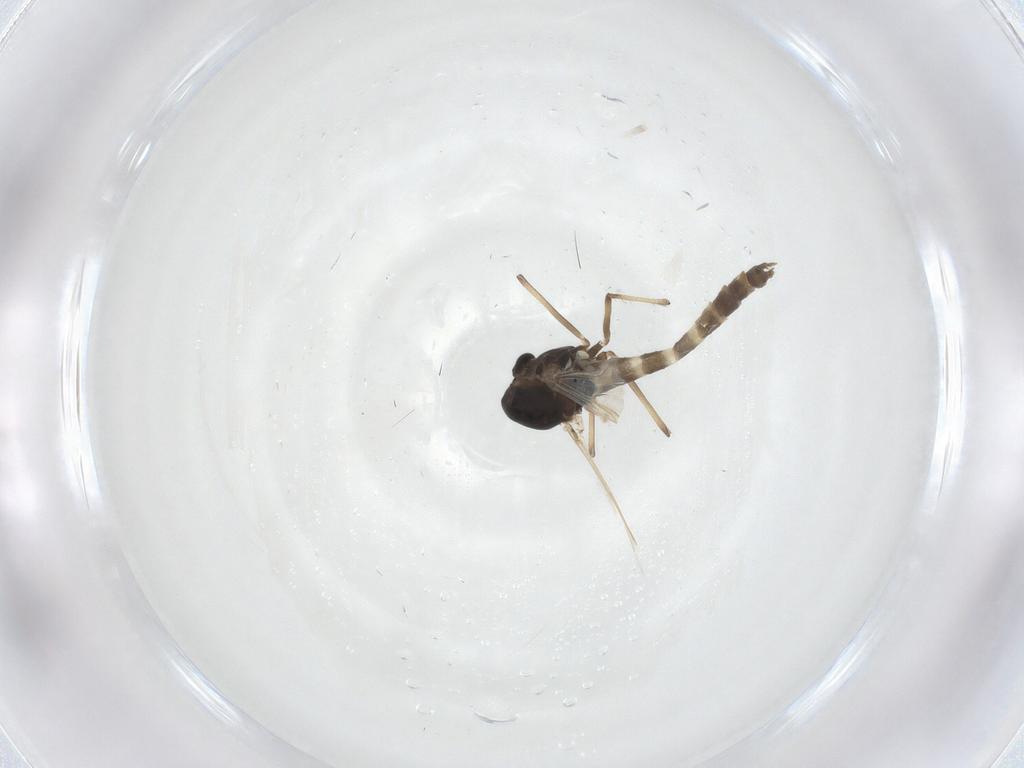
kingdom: Animalia
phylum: Arthropoda
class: Insecta
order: Diptera
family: Chironomidae
